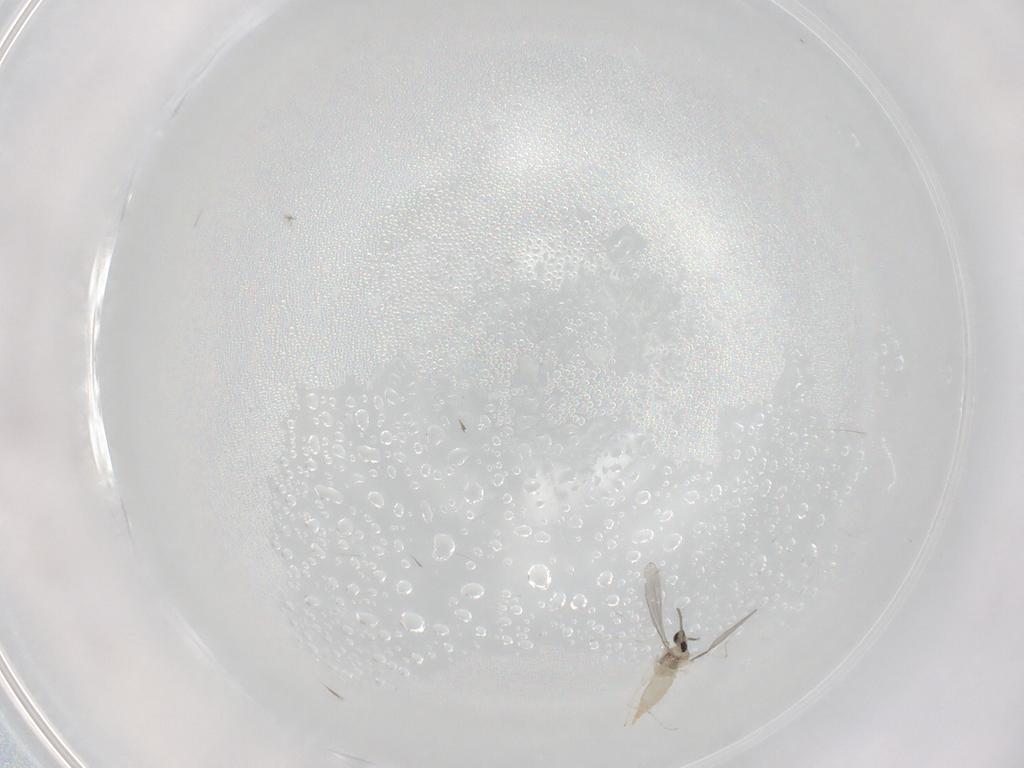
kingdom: Animalia
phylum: Arthropoda
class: Insecta
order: Diptera
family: Cecidomyiidae
